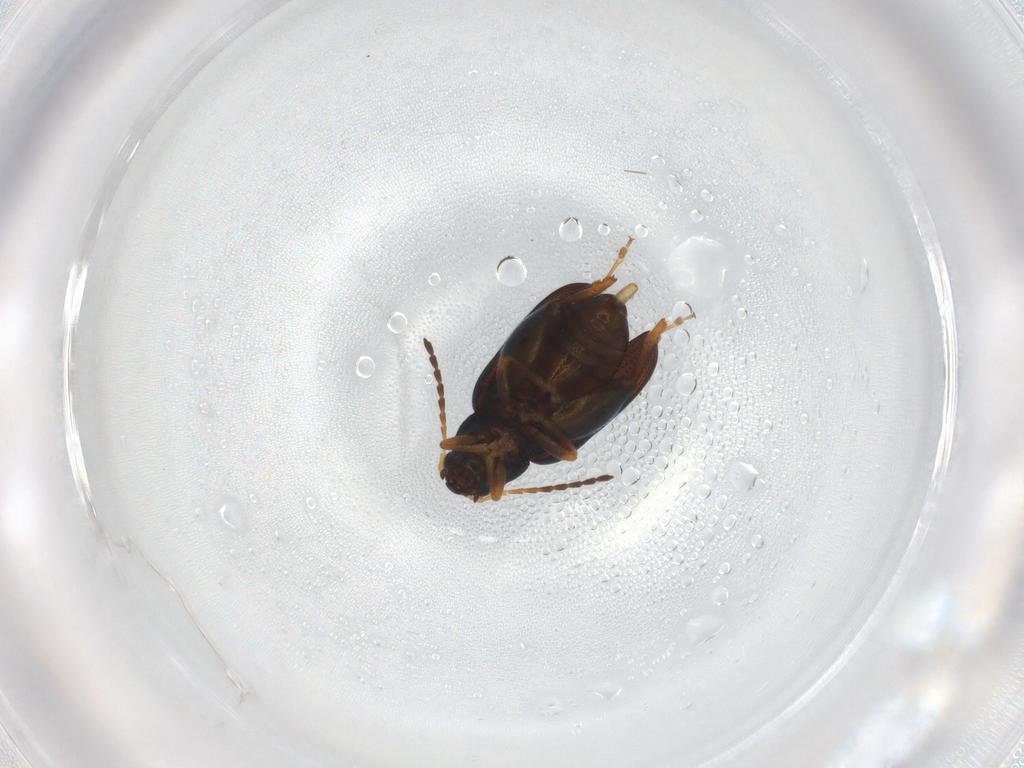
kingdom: Animalia
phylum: Arthropoda
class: Insecta
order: Coleoptera
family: Chrysomelidae
